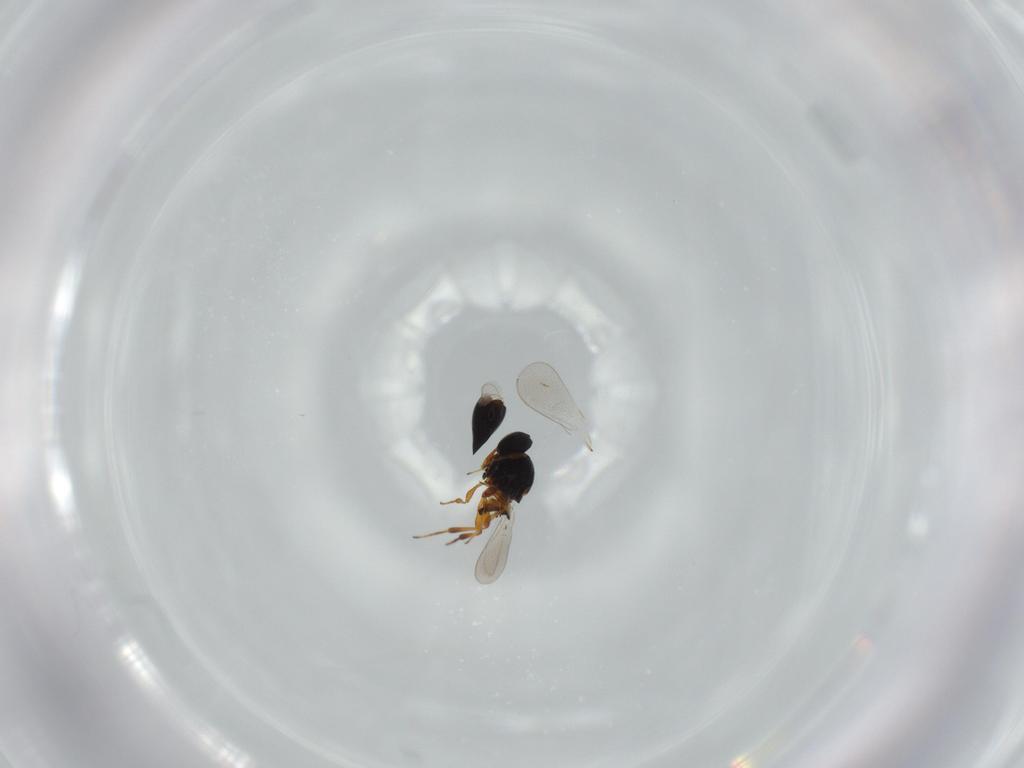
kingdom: Animalia
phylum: Arthropoda
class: Insecta
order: Hymenoptera
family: Platygastridae
